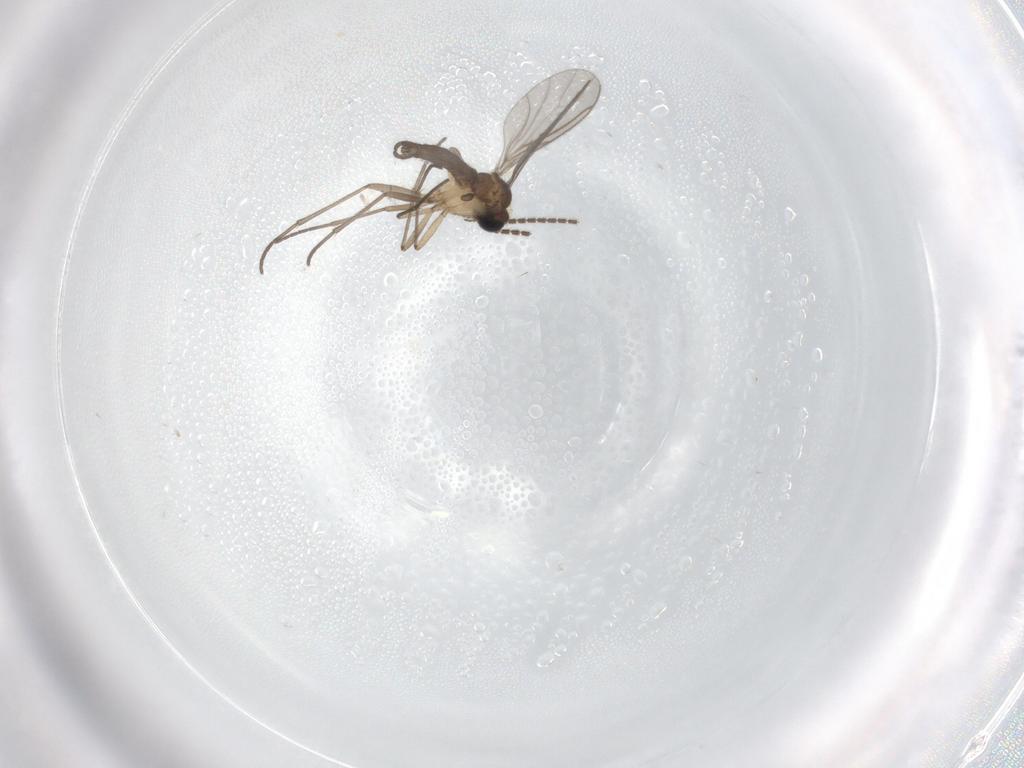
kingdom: Animalia
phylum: Arthropoda
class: Insecta
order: Diptera
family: Sciaridae
